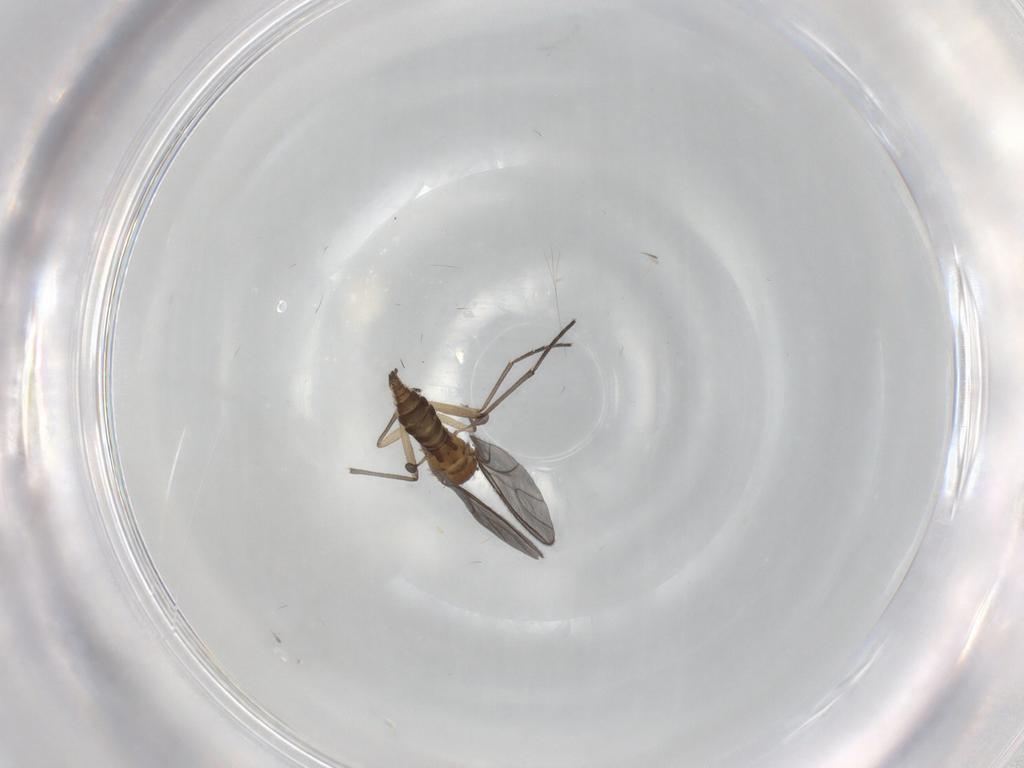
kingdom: Animalia
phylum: Arthropoda
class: Insecta
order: Diptera
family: Sciaridae
